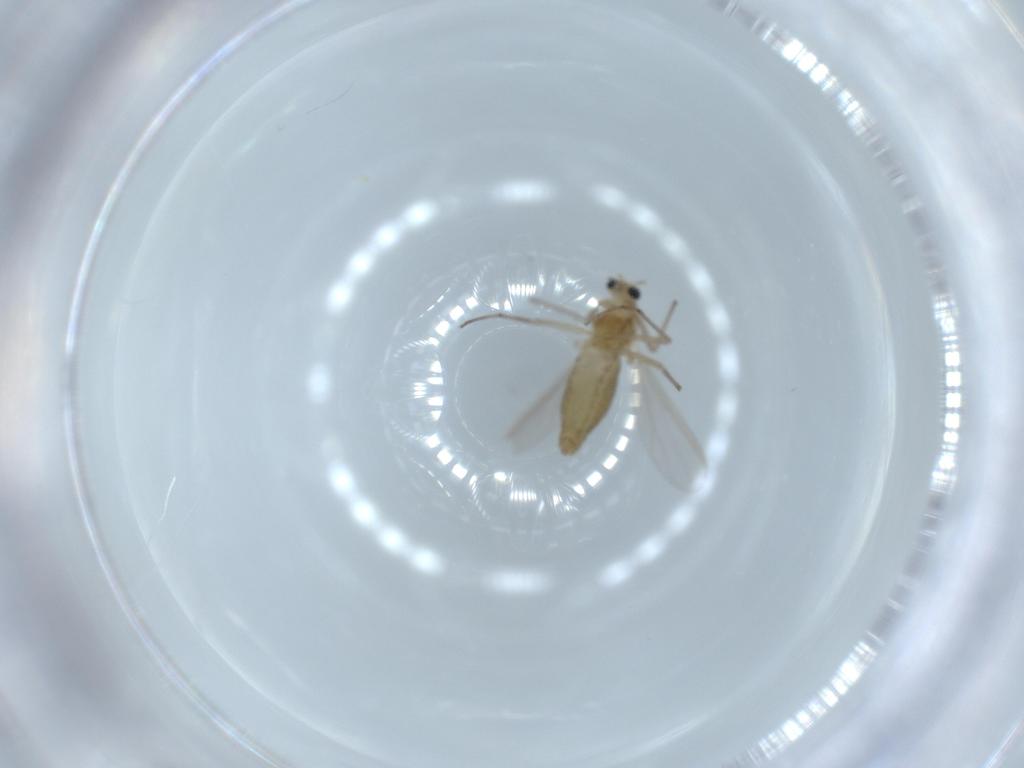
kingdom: Animalia
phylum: Arthropoda
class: Insecta
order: Diptera
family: Chironomidae
